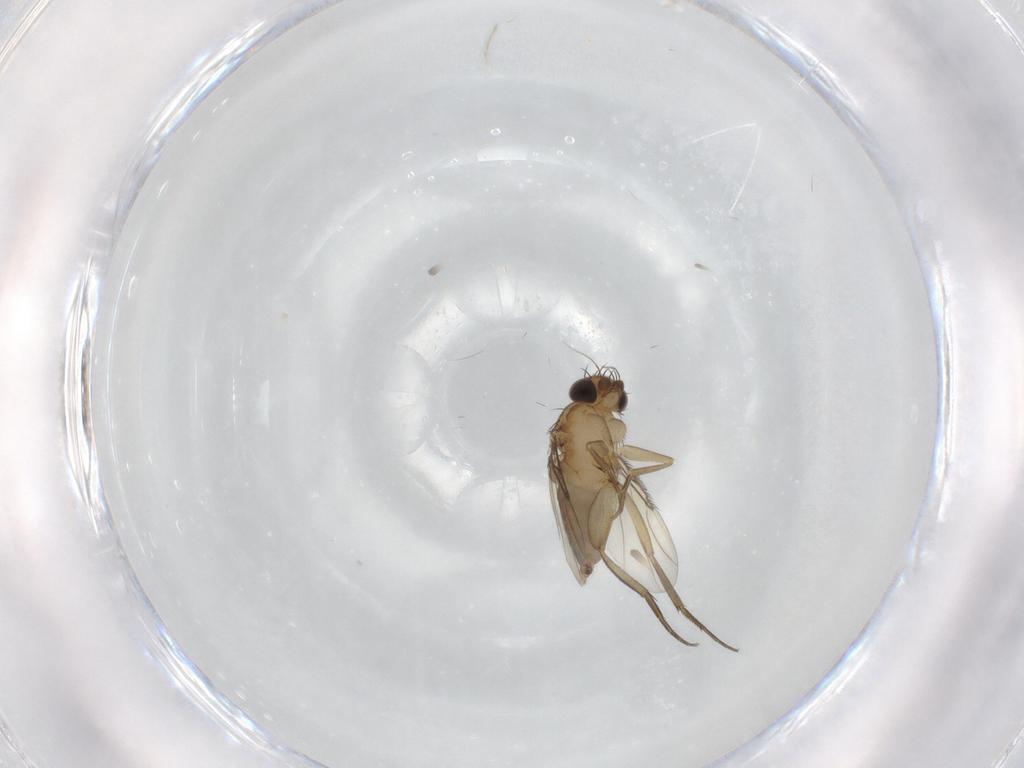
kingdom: Animalia
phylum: Arthropoda
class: Insecta
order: Diptera
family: Phoridae
